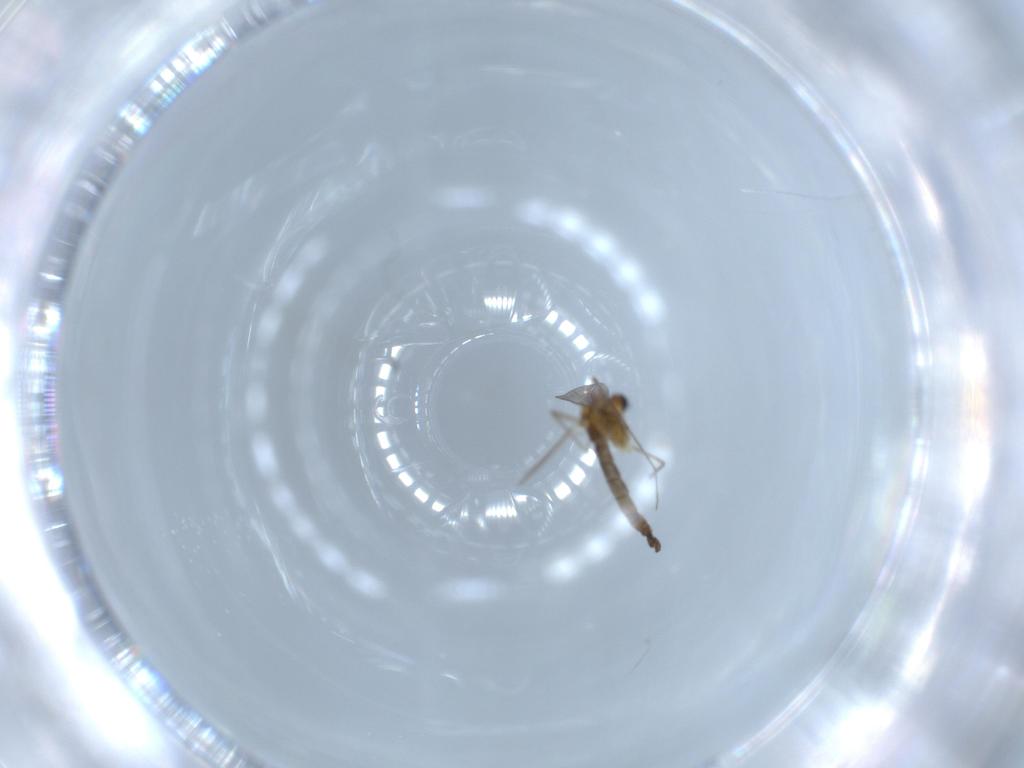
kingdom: Animalia
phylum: Arthropoda
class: Insecta
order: Diptera
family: Chironomidae
